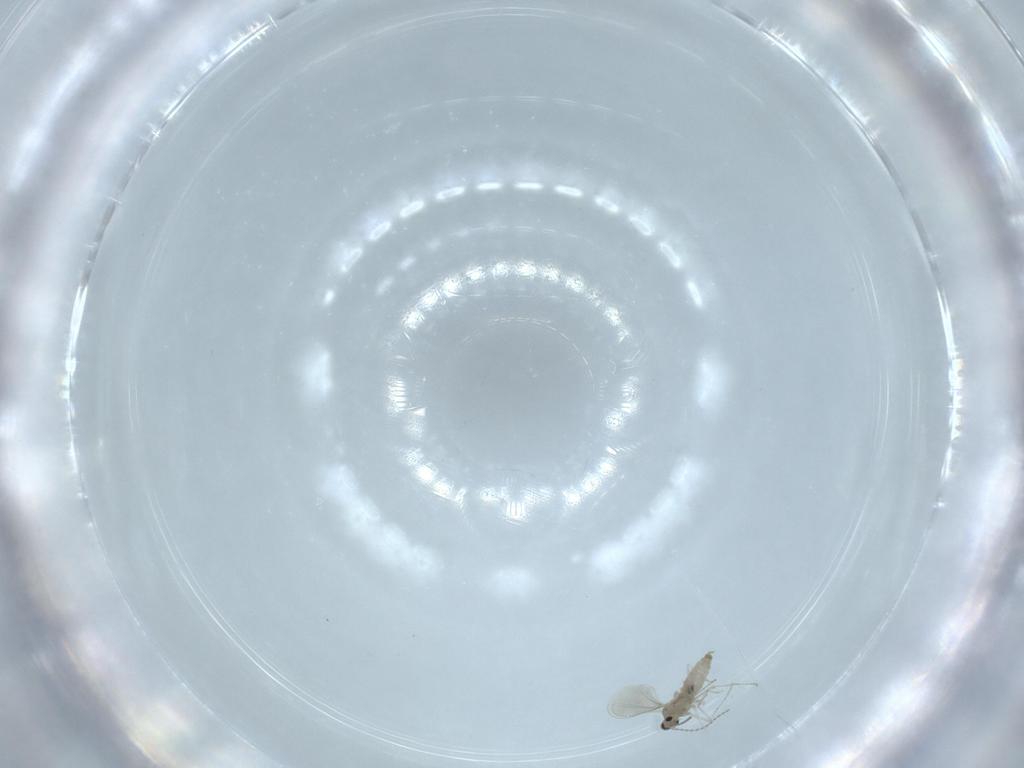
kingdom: Animalia
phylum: Arthropoda
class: Insecta
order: Diptera
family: Cecidomyiidae
